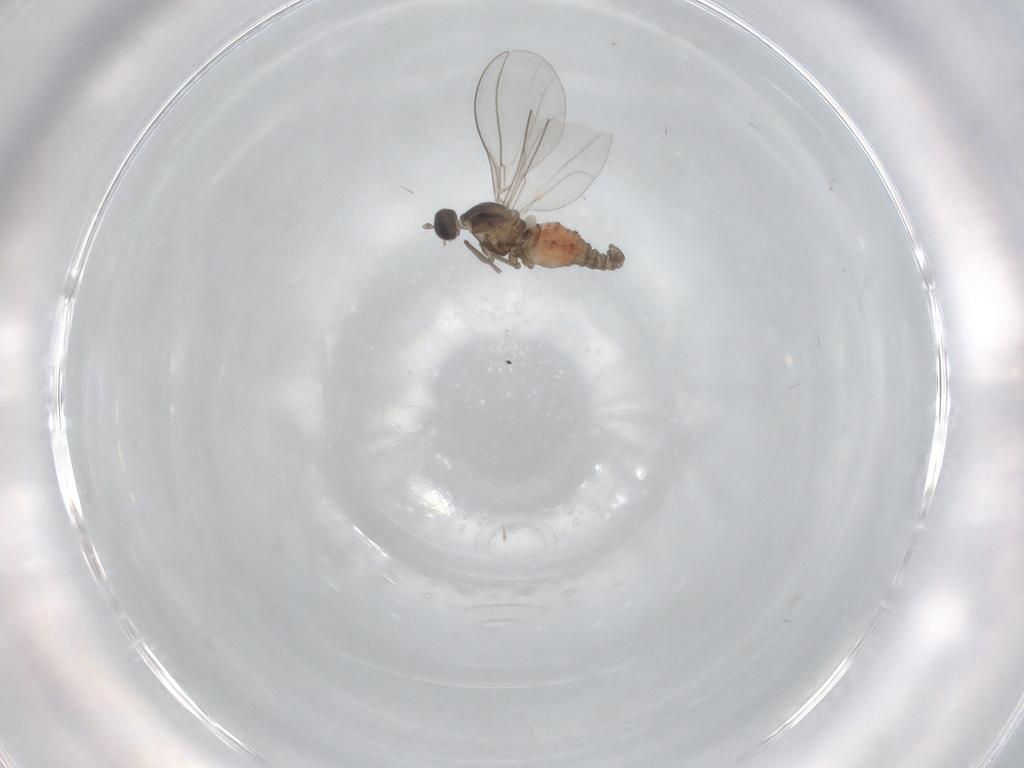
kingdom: Animalia
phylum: Arthropoda
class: Insecta
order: Diptera
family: Cecidomyiidae
